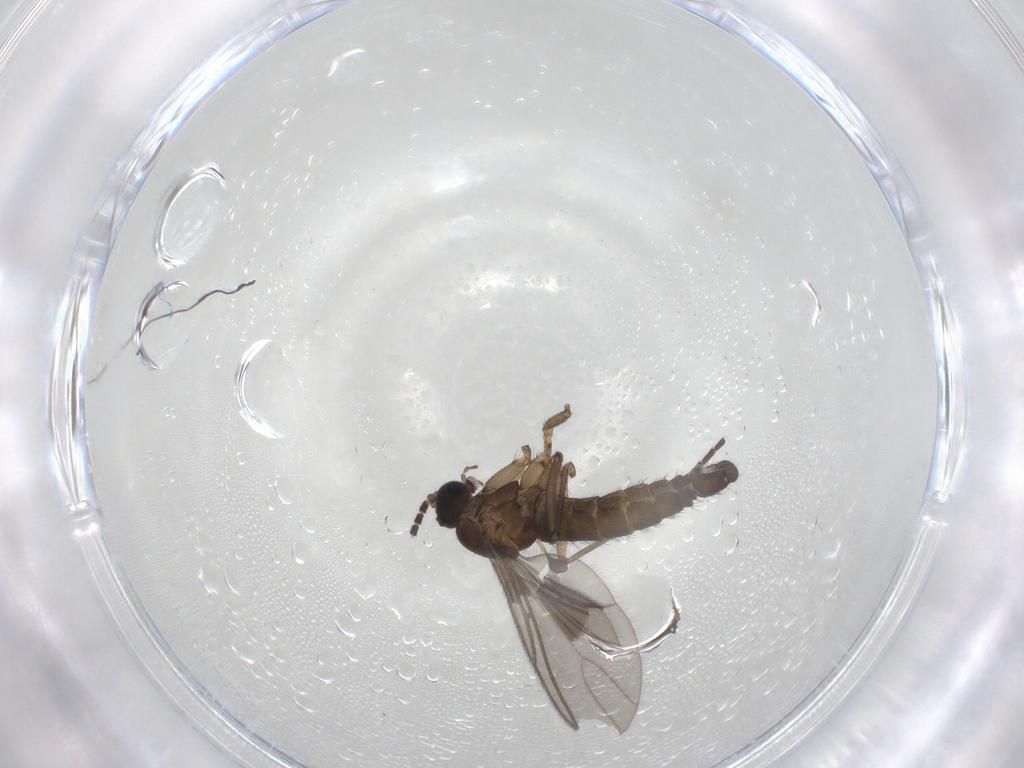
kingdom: Animalia
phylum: Arthropoda
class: Insecta
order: Diptera
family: Sciaridae
